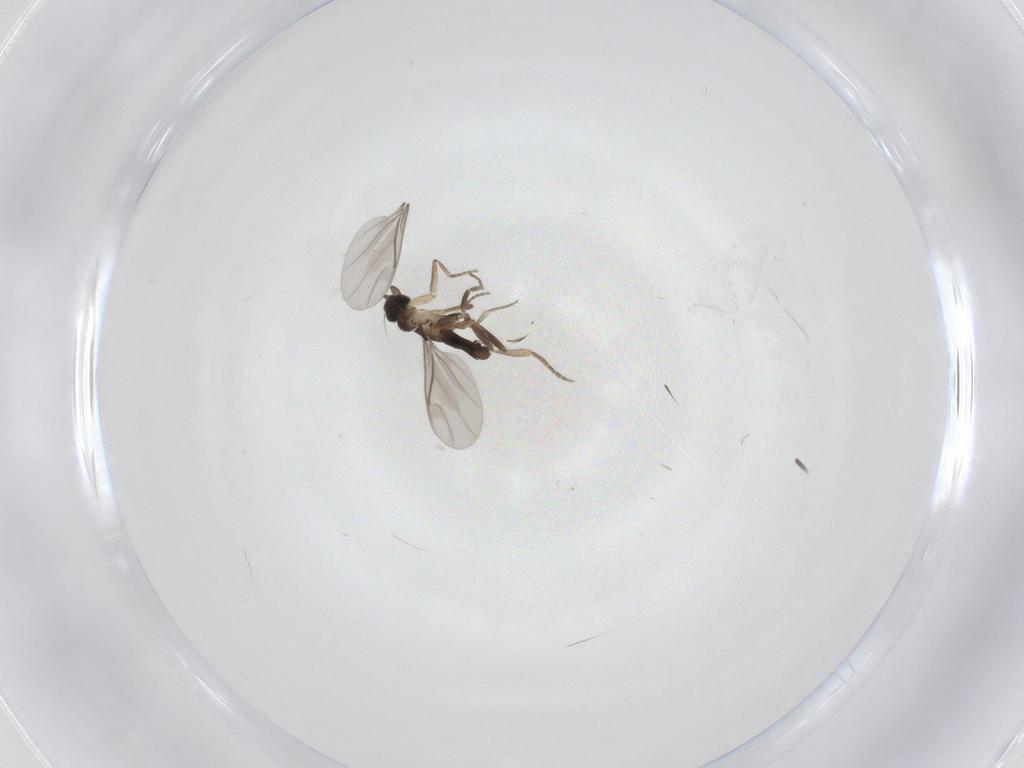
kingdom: Animalia
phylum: Arthropoda
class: Insecta
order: Diptera
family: Phoridae
